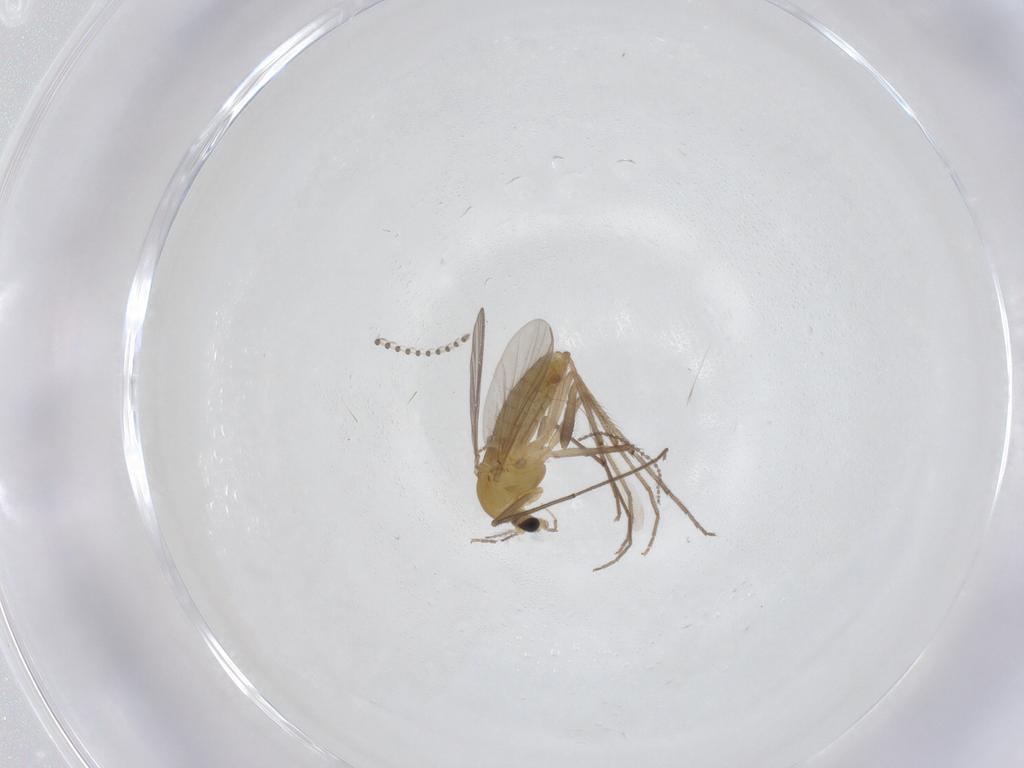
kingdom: Animalia
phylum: Arthropoda
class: Insecta
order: Diptera
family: Chironomidae
